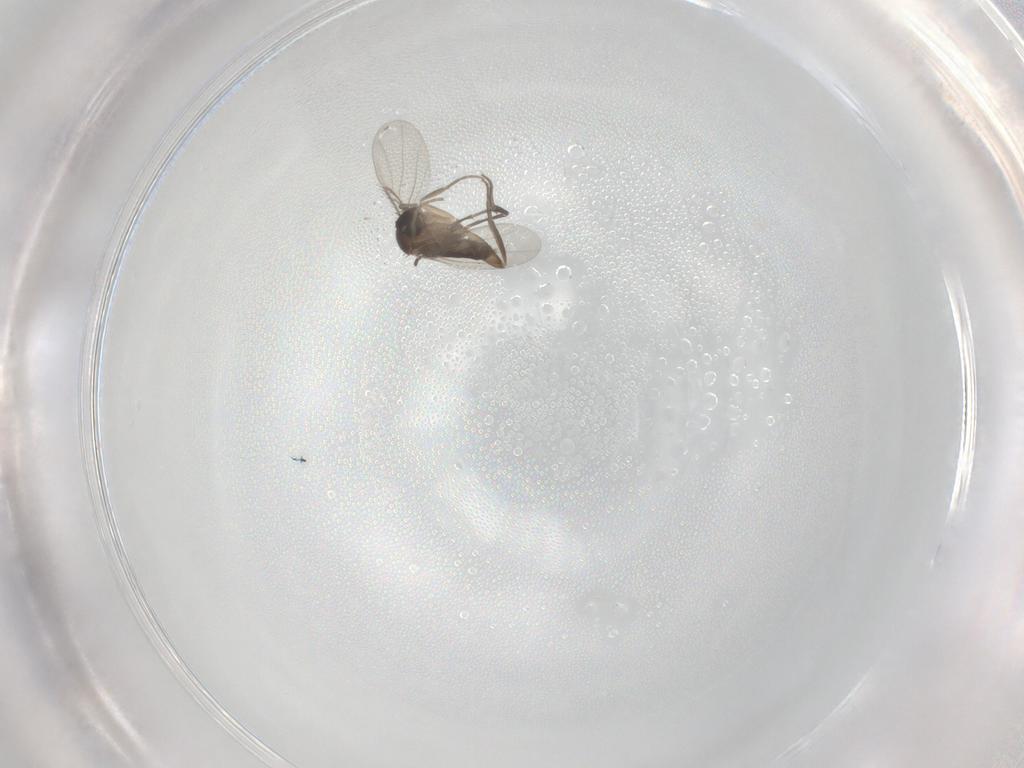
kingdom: Animalia
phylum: Arthropoda
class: Insecta
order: Diptera
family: Phoridae
